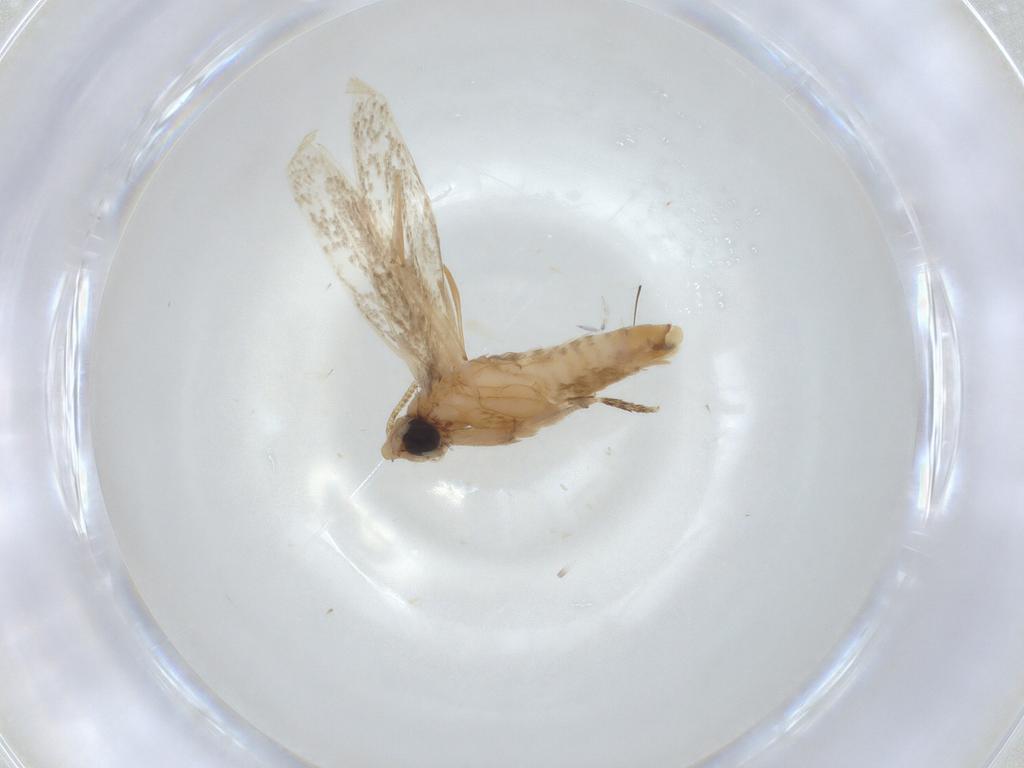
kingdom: Animalia
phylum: Arthropoda
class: Insecta
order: Lepidoptera
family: Tineidae
